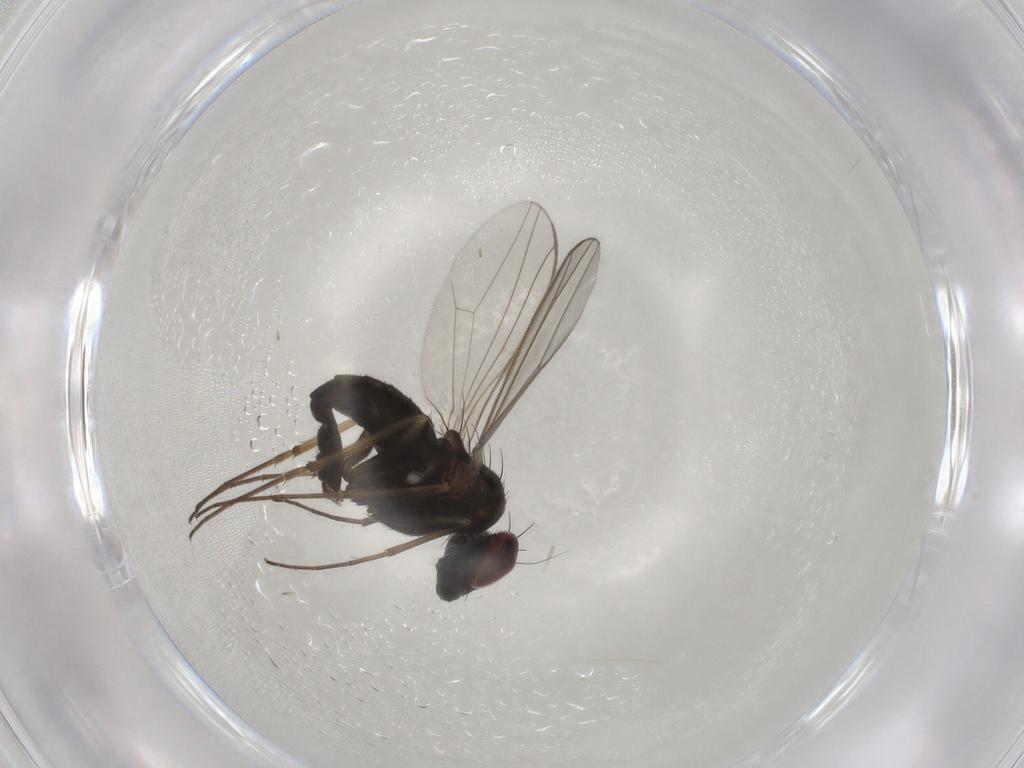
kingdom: Animalia
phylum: Arthropoda
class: Insecta
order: Diptera
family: Dolichopodidae
